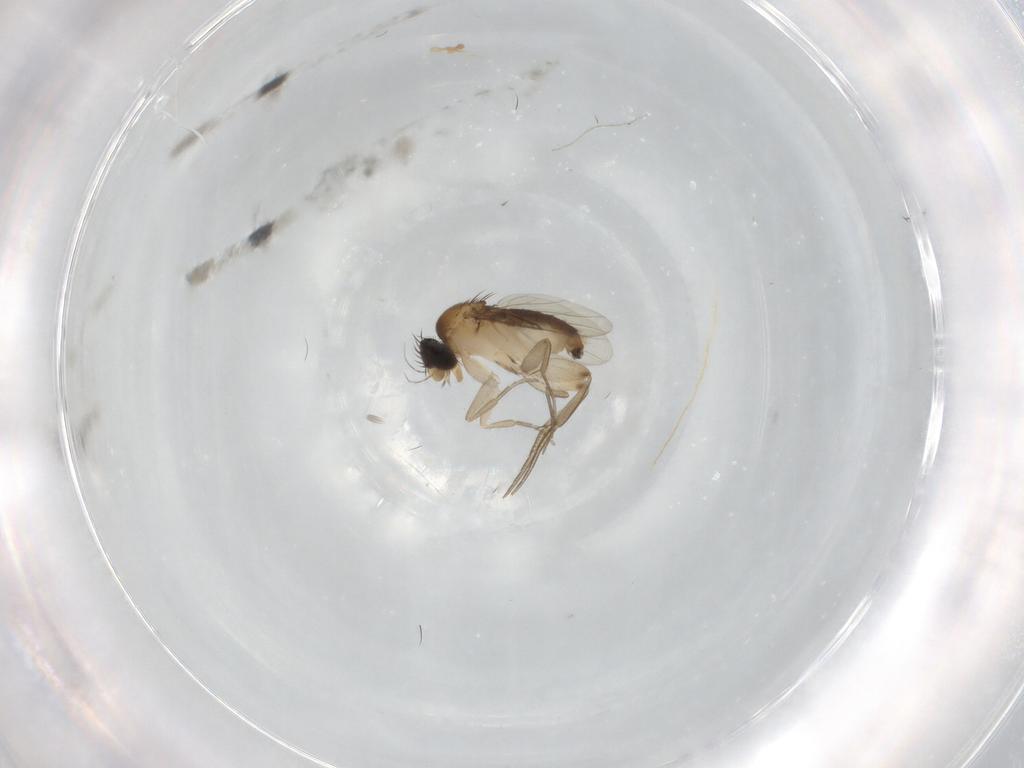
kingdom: Animalia
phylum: Arthropoda
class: Insecta
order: Diptera
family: Phoridae
